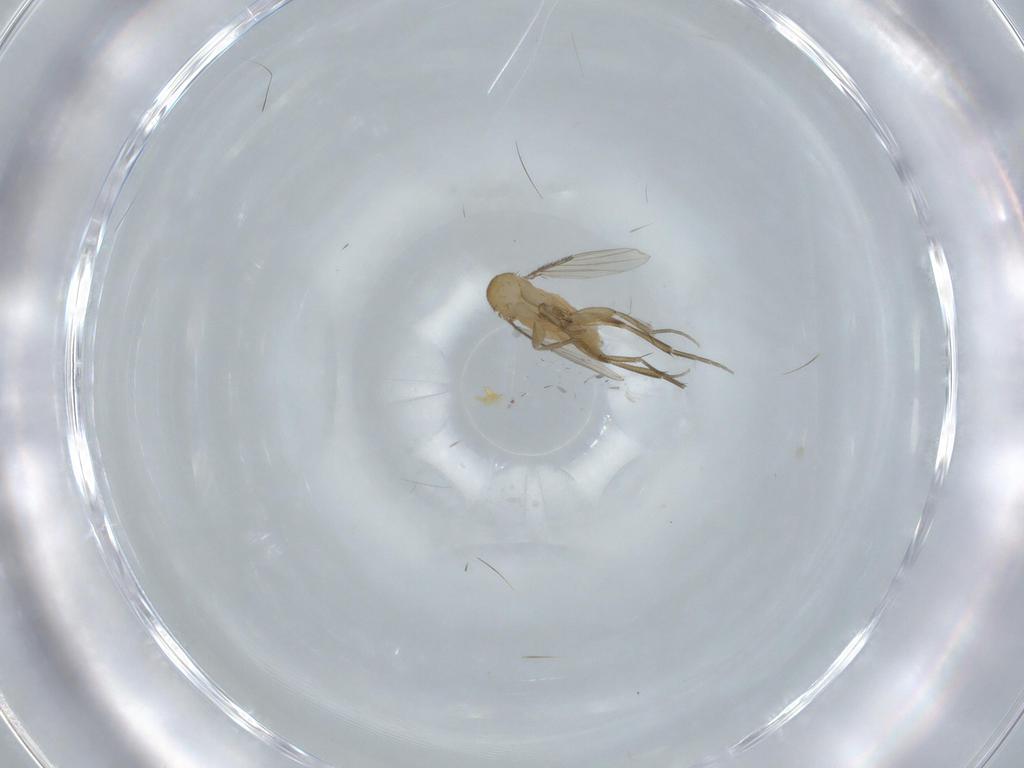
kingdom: Animalia
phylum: Arthropoda
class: Insecta
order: Diptera
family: Phoridae
